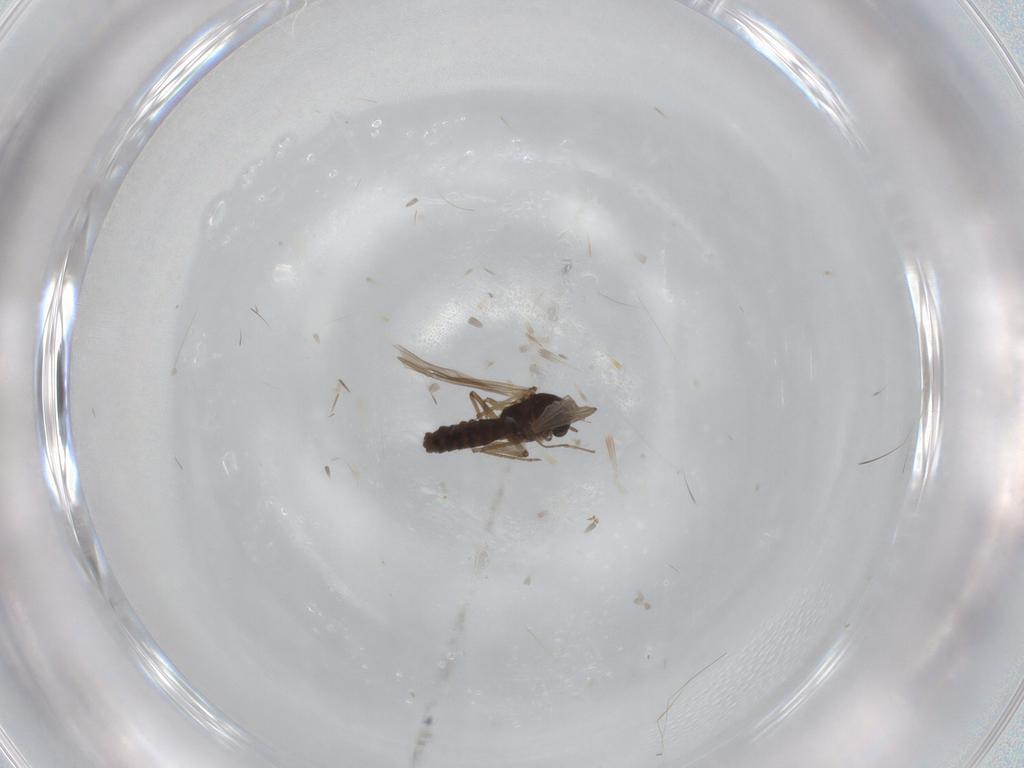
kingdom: Animalia
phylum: Arthropoda
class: Insecta
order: Diptera
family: Chironomidae
